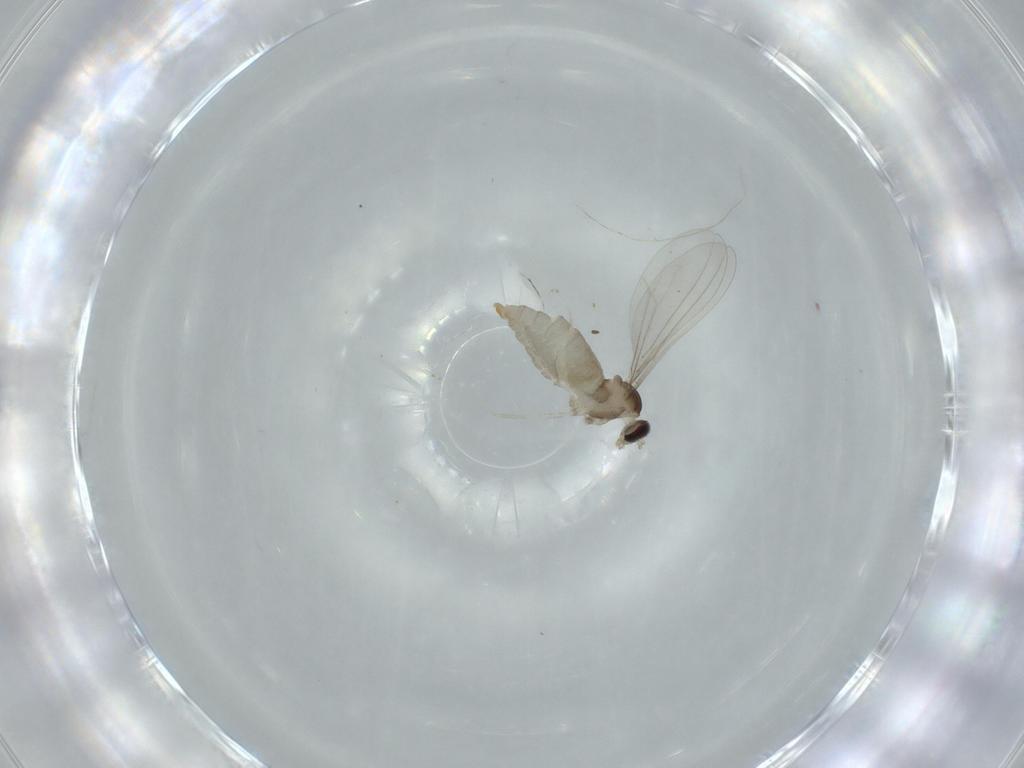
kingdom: Animalia
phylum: Arthropoda
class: Insecta
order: Diptera
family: Cecidomyiidae
